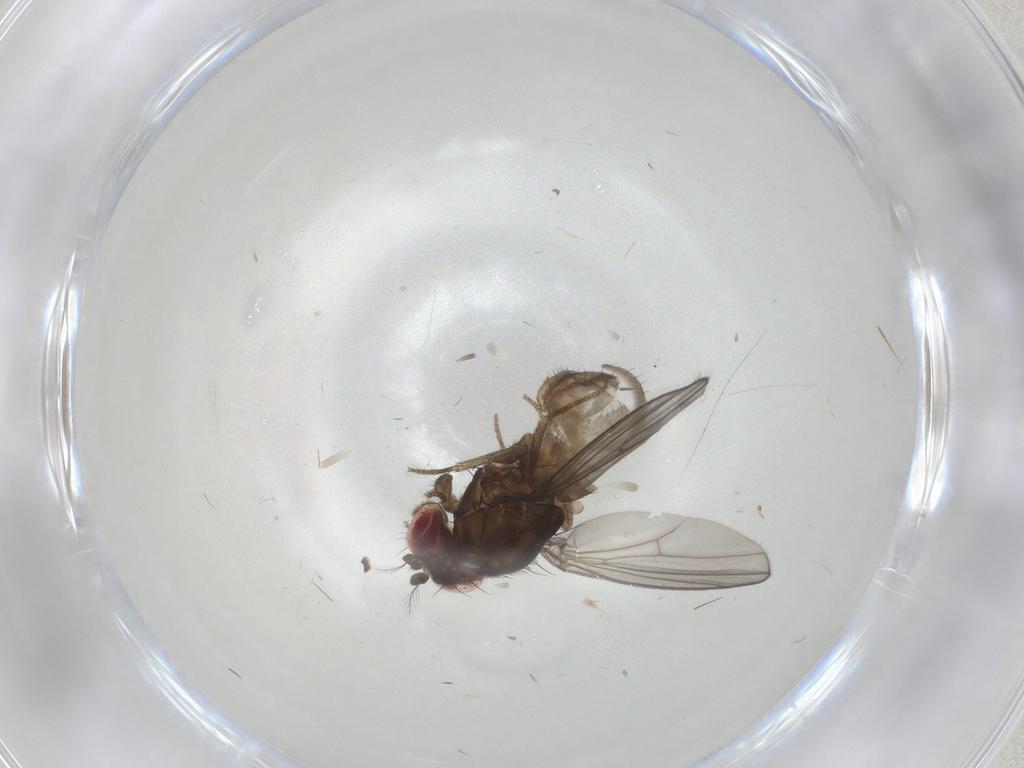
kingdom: Animalia
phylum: Arthropoda
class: Insecta
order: Diptera
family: Drosophilidae
